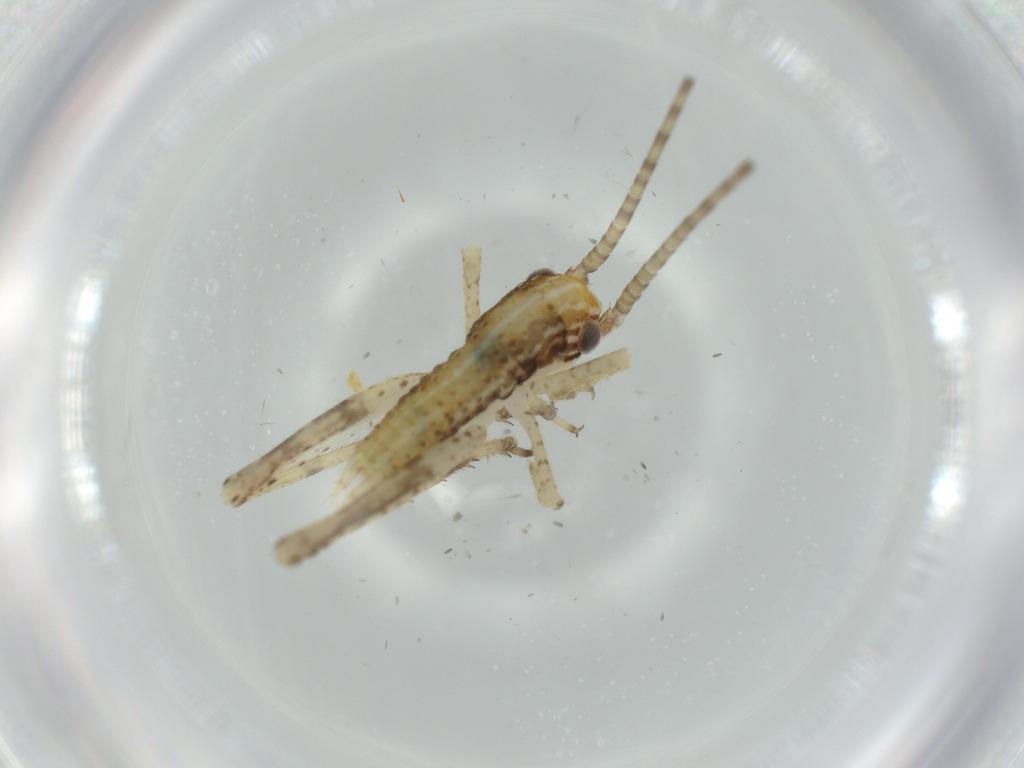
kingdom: Animalia
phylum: Arthropoda
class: Insecta
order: Orthoptera
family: Gryllidae
